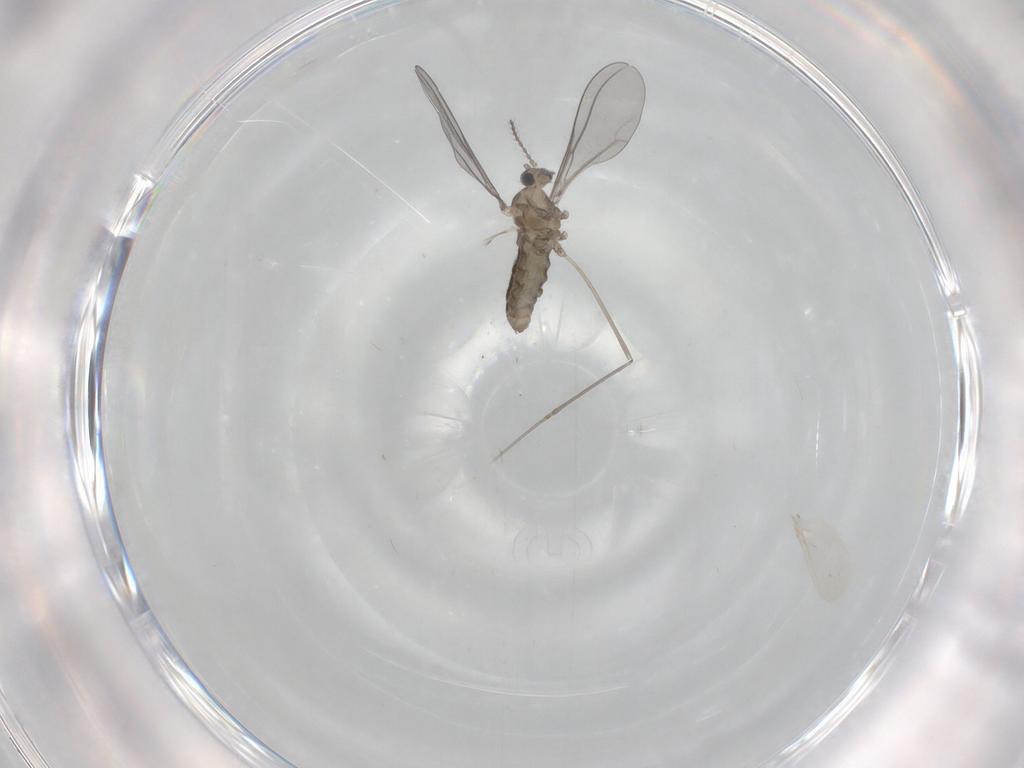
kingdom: Animalia
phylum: Arthropoda
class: Insecta
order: Diptera
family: Cecidomyiidae
